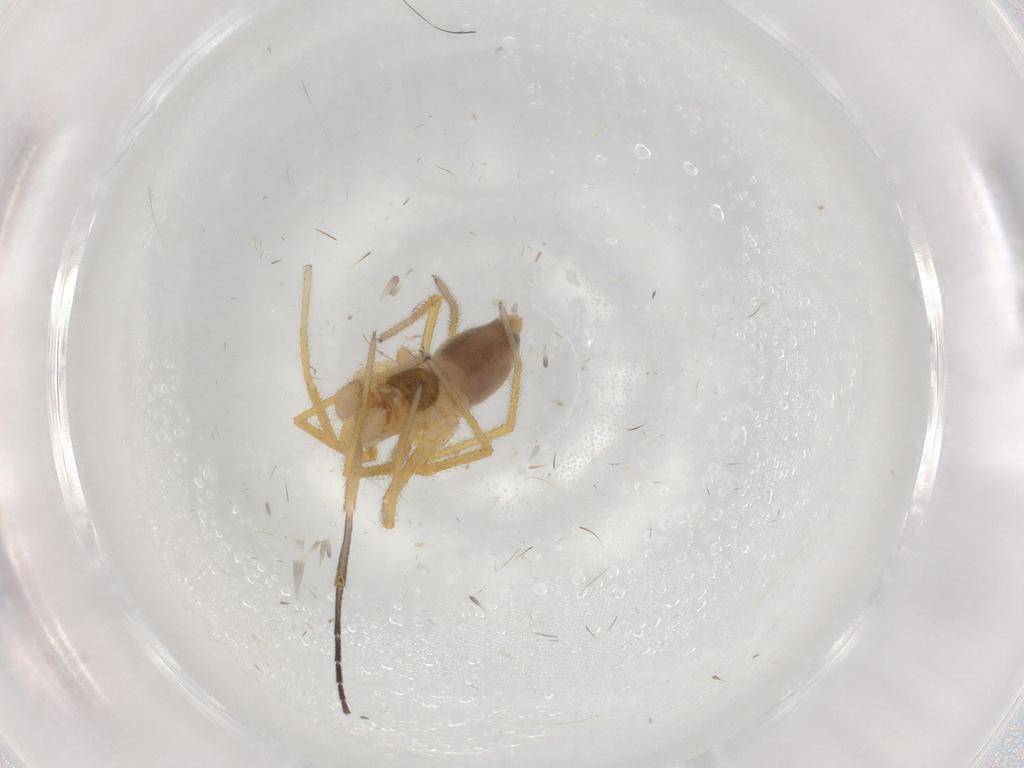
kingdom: Animalia
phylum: Arthropoda
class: Arachnida
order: Araneae
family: Linyphiidae
